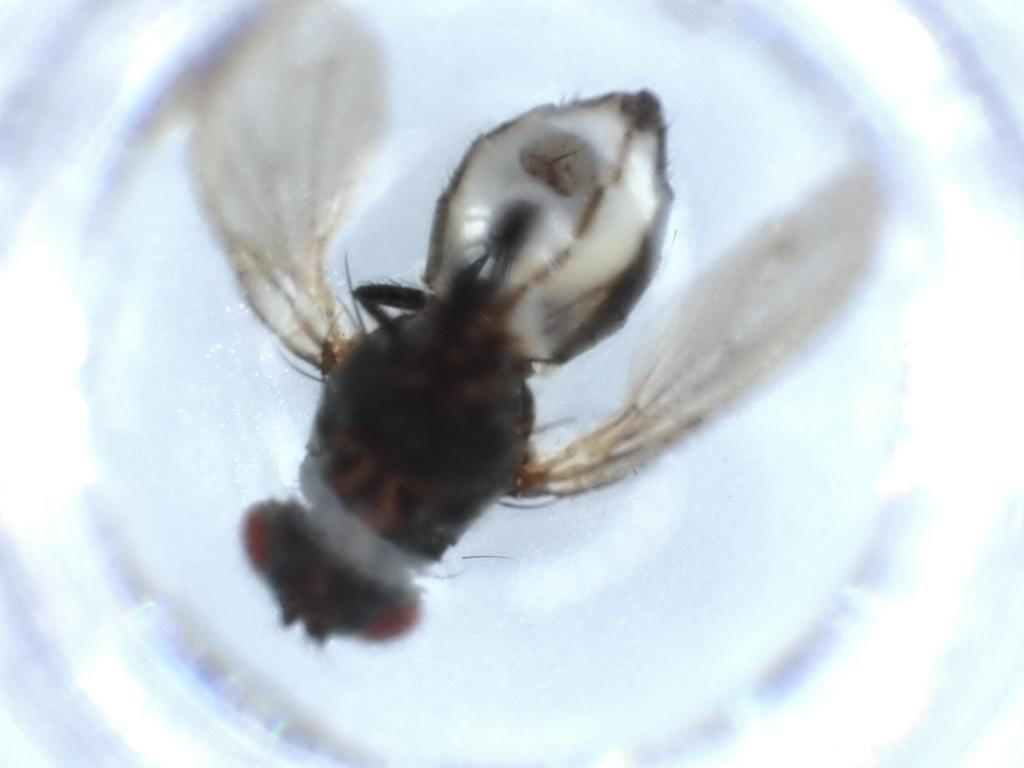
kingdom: Animalia
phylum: Arthropoda
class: Insecta
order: Diptera
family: Anthomyiidae
